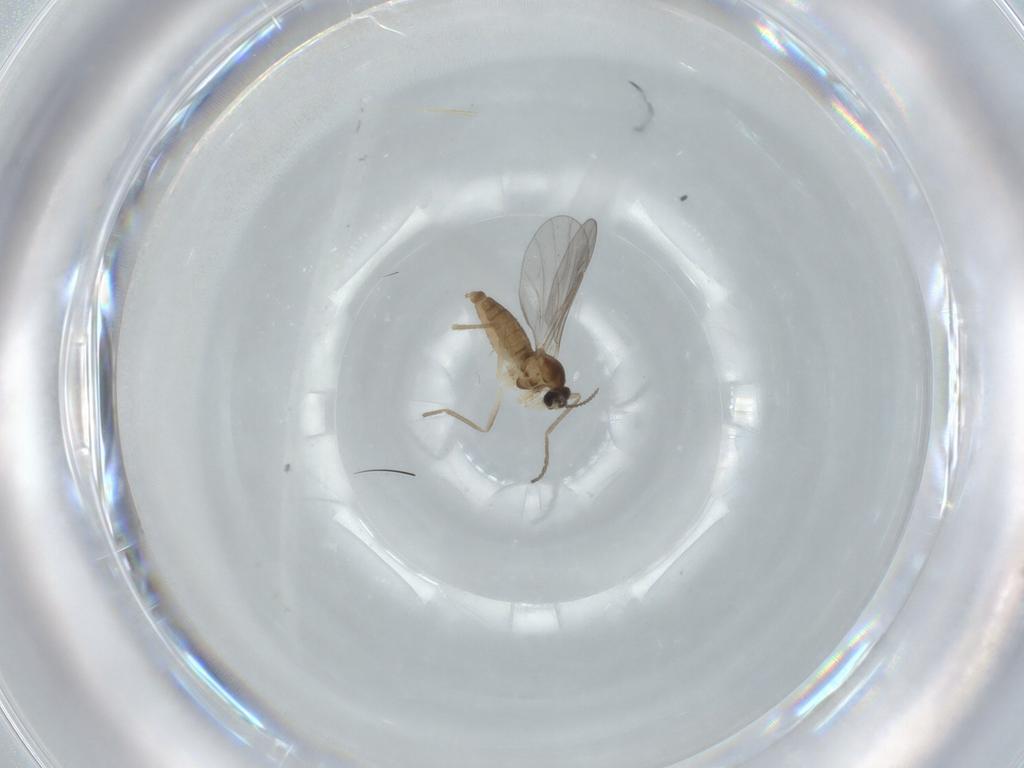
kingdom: Animalia
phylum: Arthropoda
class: Insecta
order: Diptera
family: Cecidomyiidae
